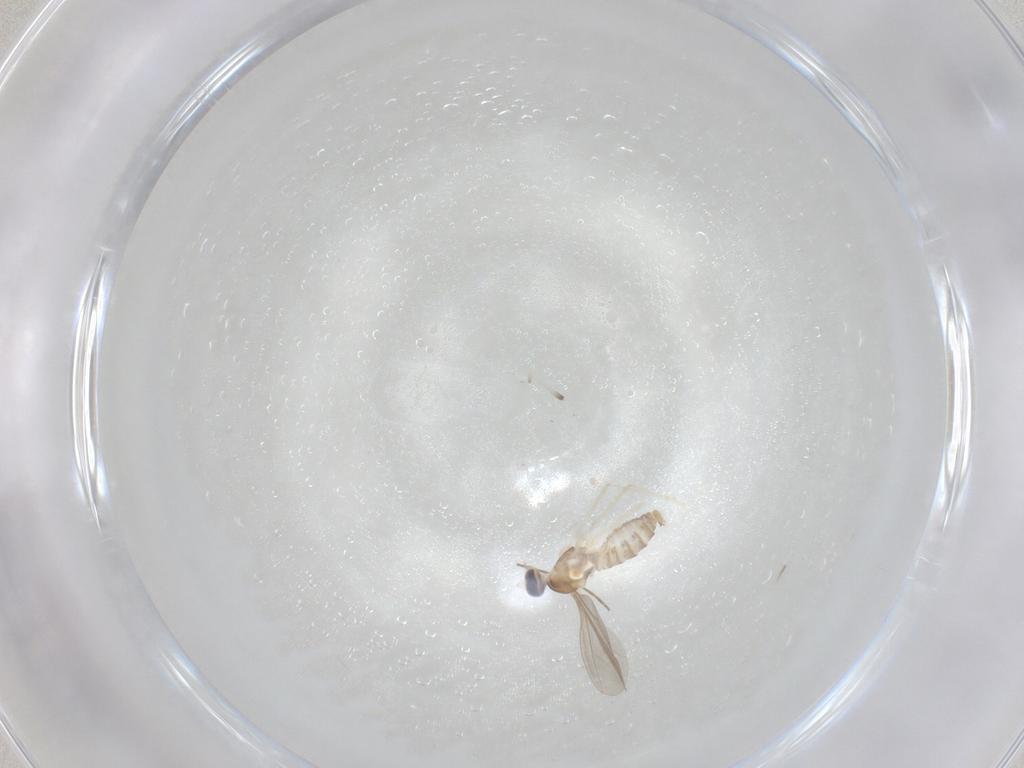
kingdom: Animalia
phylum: Arthropoda
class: Insecta
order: Diptera
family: Cecidomyiidae
